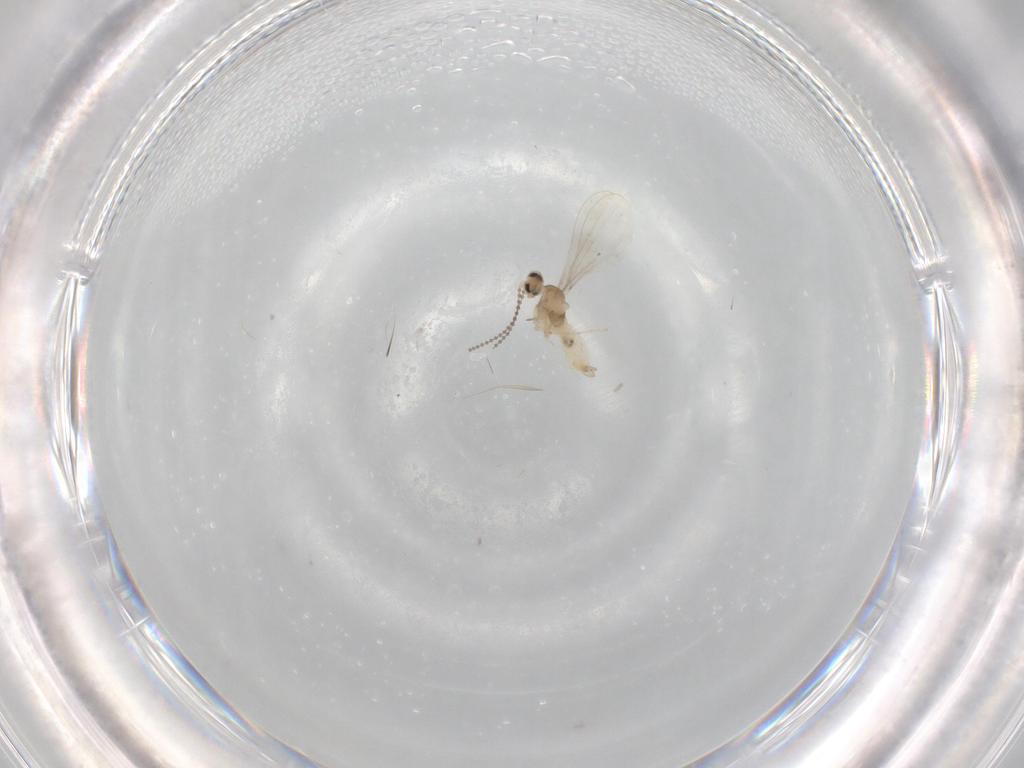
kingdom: Animalia
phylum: Arthropoda
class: Insecta
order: Diptera
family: Cecidomyiidae
